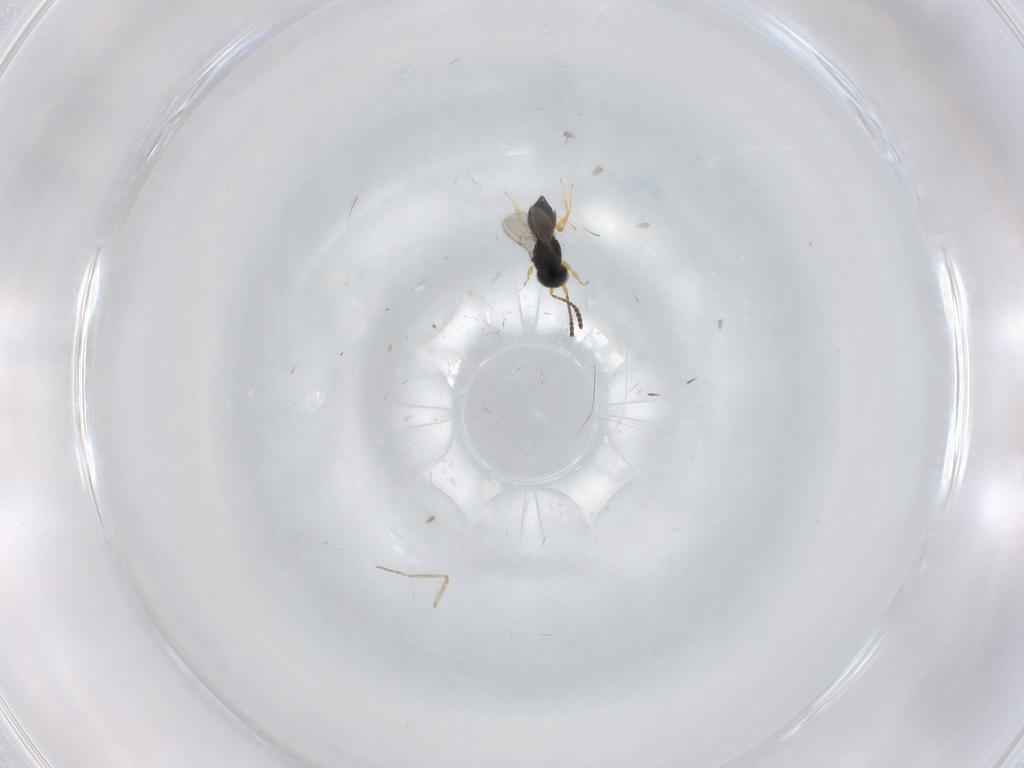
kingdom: Animalia
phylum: Arthropoda
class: Insecta
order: Hymenoptera
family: Scelionidae
